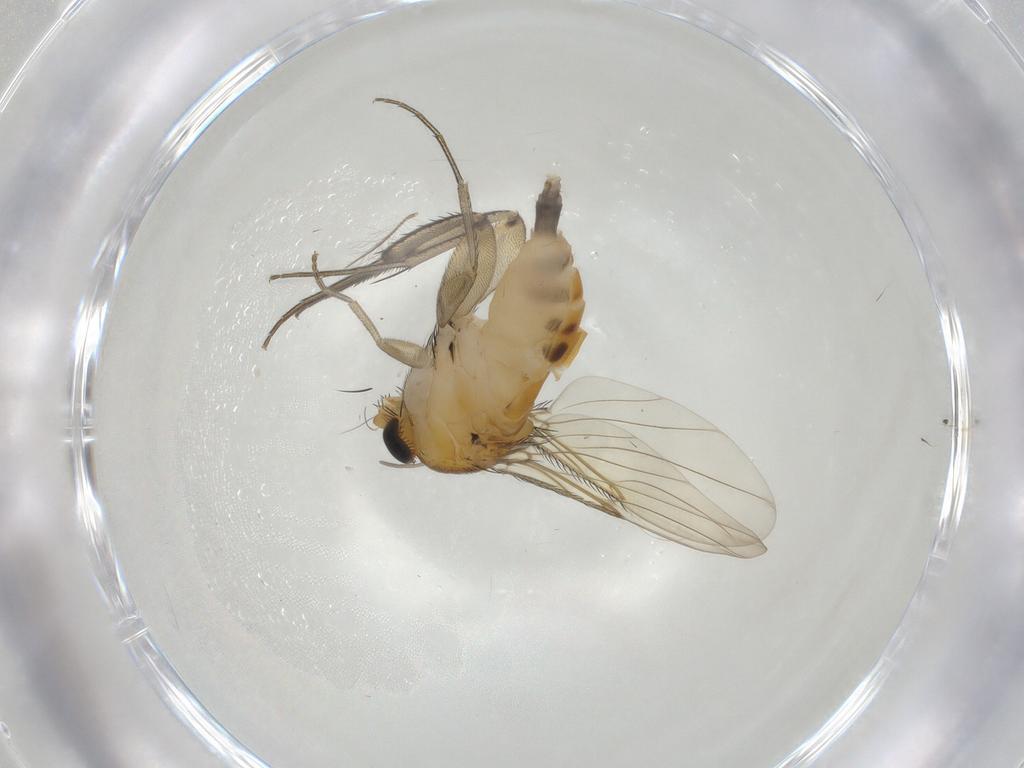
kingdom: Animalia
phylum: Arthropoda
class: Insecta
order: Diptera
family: Phoridae
